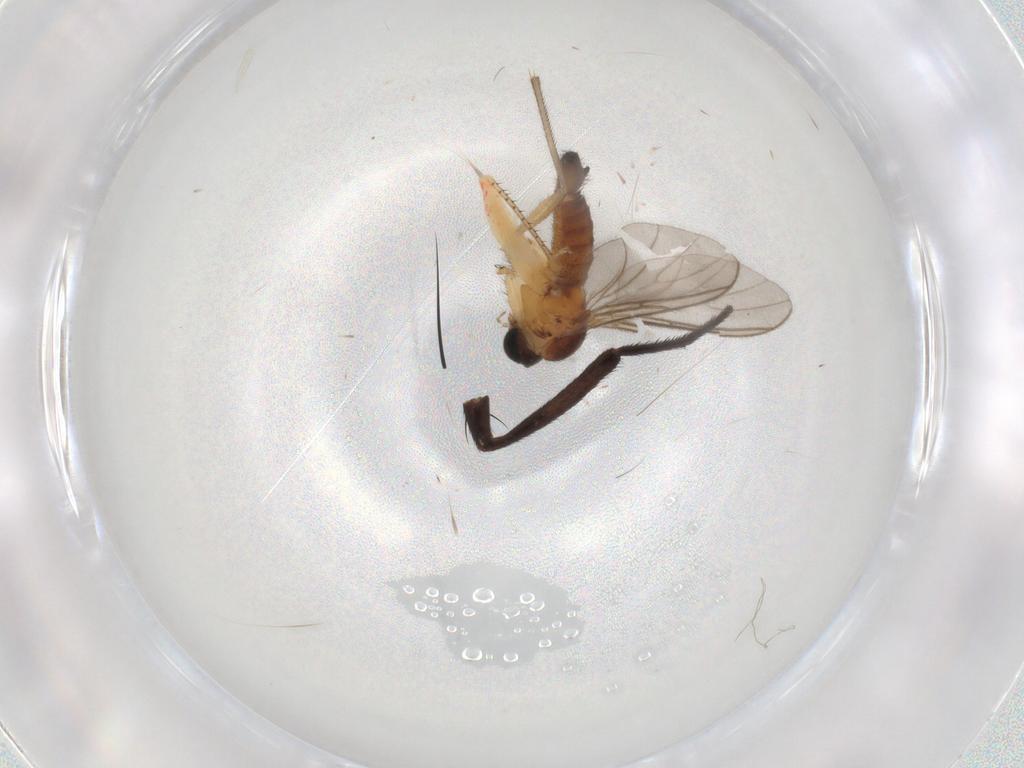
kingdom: Animalia
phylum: Arthropoda
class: Insecta
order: Diptera
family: Sciaridae
